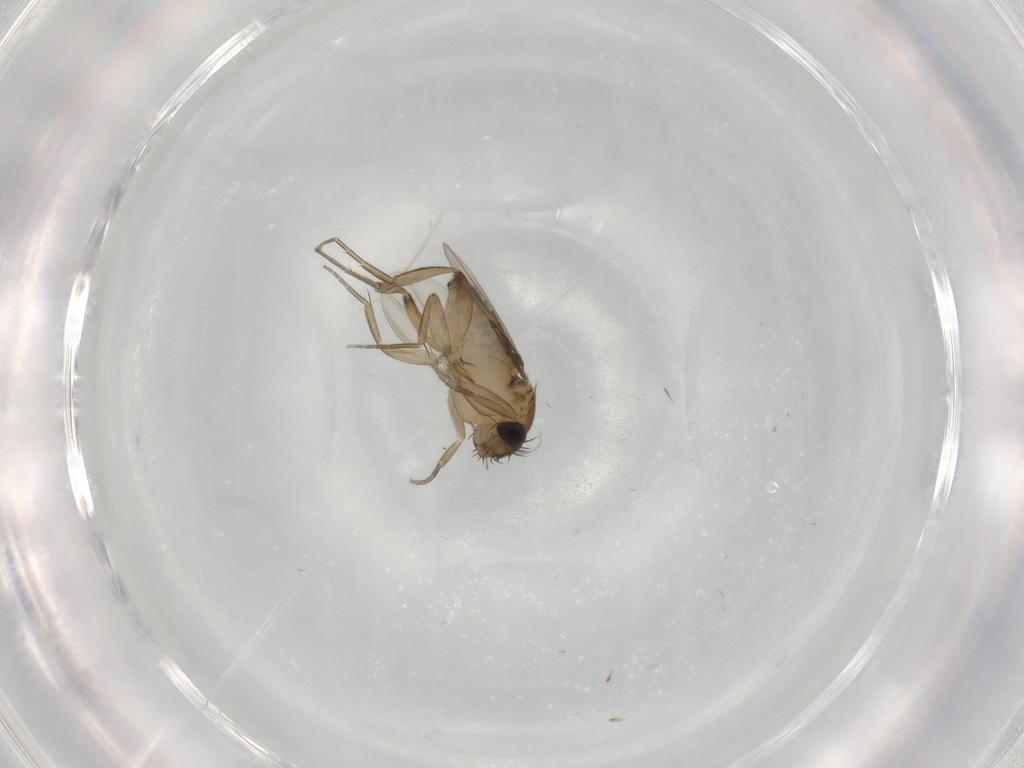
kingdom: Animalia
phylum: Arthropoda
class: Insecta
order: Diptera
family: Phoridae
